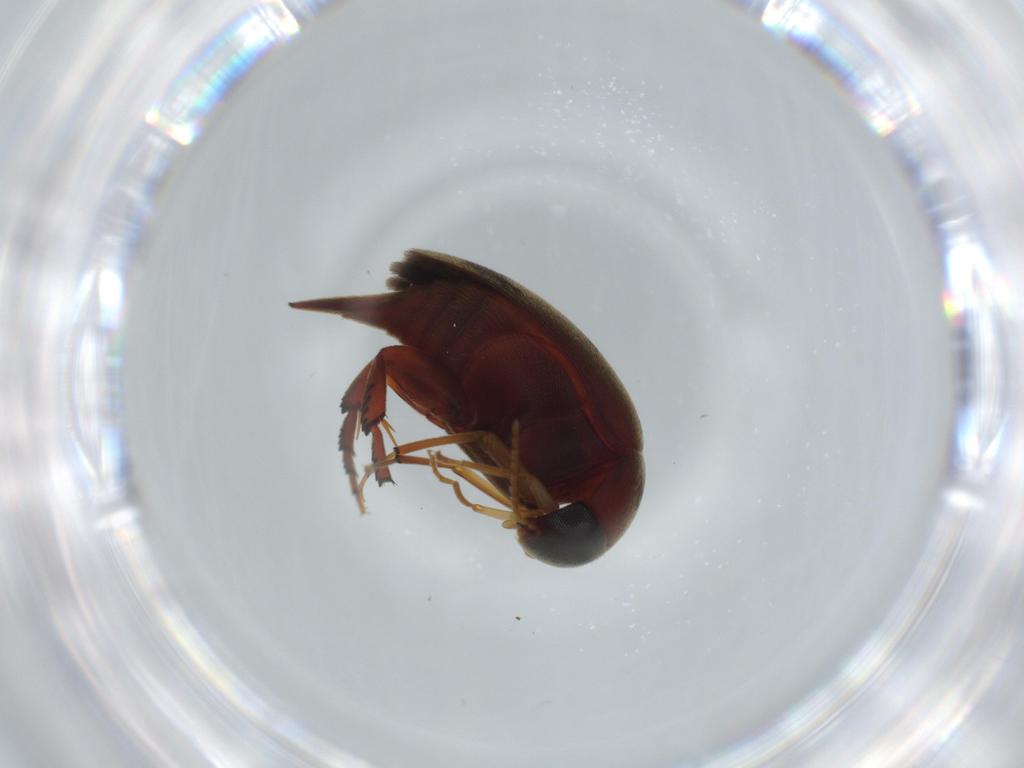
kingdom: Animalia
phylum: Arthropoda
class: Insecta
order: Coleoptera
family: Mordellidae
